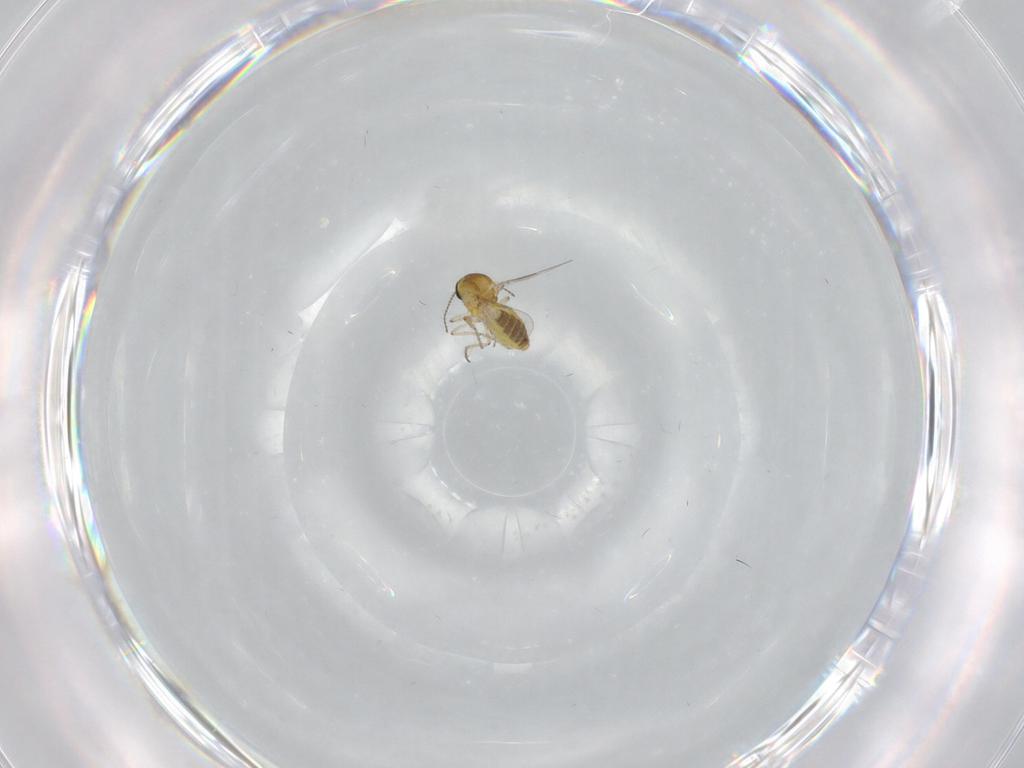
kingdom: Animalia
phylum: Arthropoda
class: Insecta
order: Diptera
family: Ceratopogonidae
